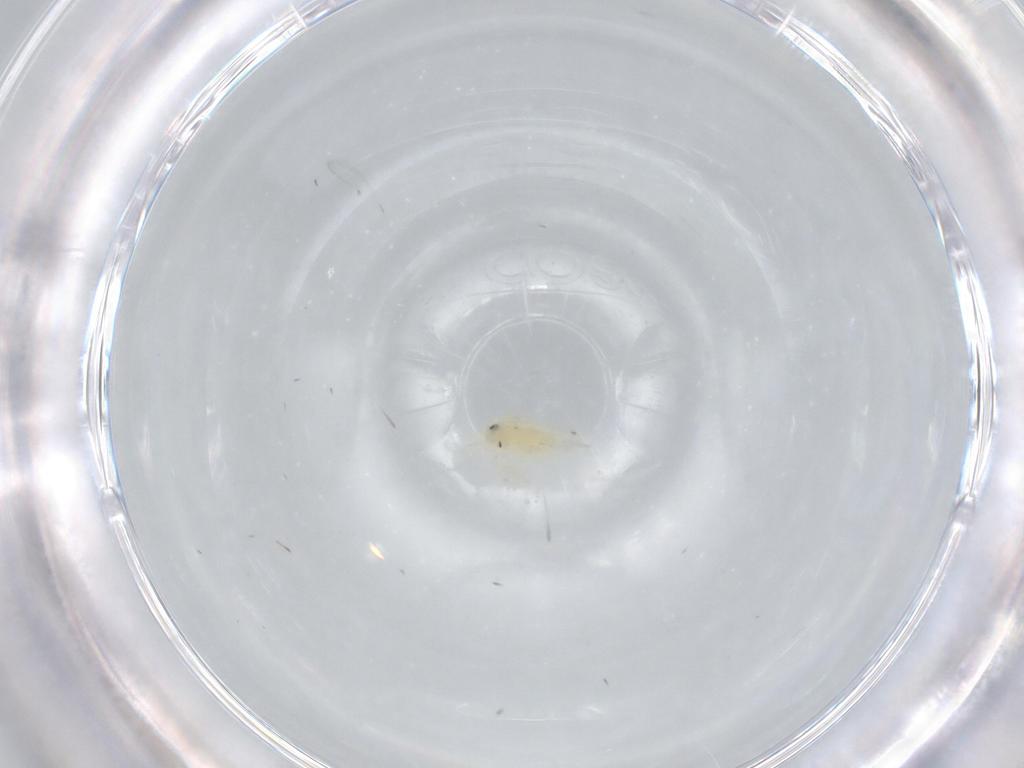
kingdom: Animalia
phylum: Arthropoda
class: Insecta
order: Hemiptera
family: Aleyrodidae
